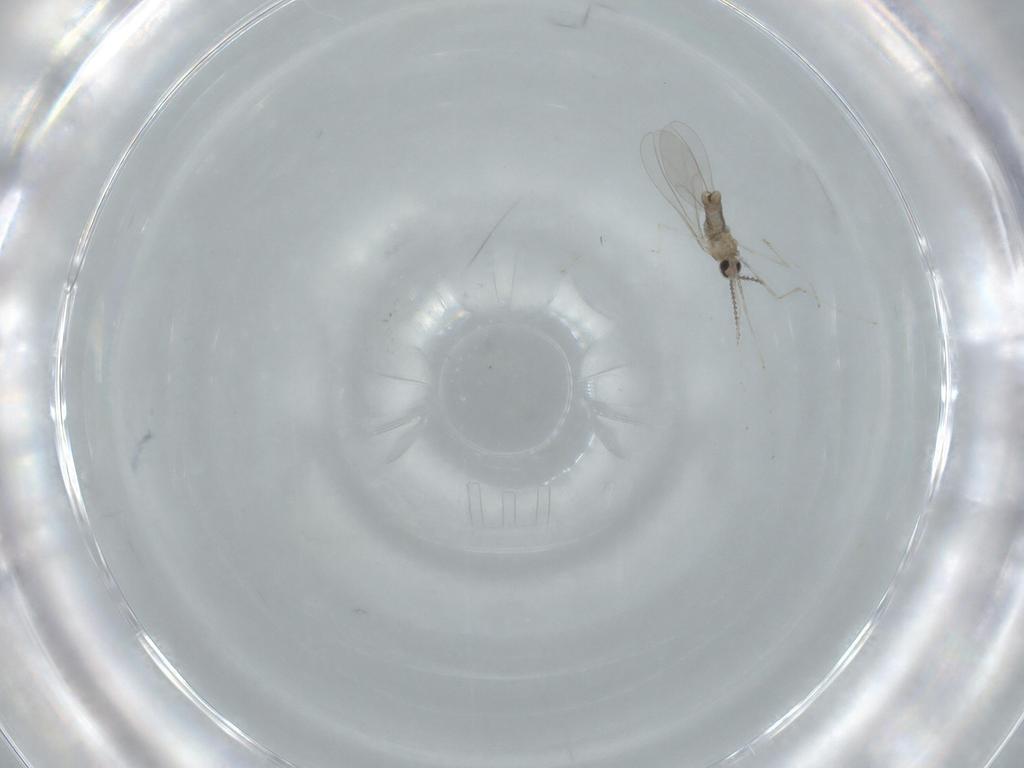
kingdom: Animalia
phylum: Arthropoda
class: Insecta
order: Diptera
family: Cecidomyiidae
